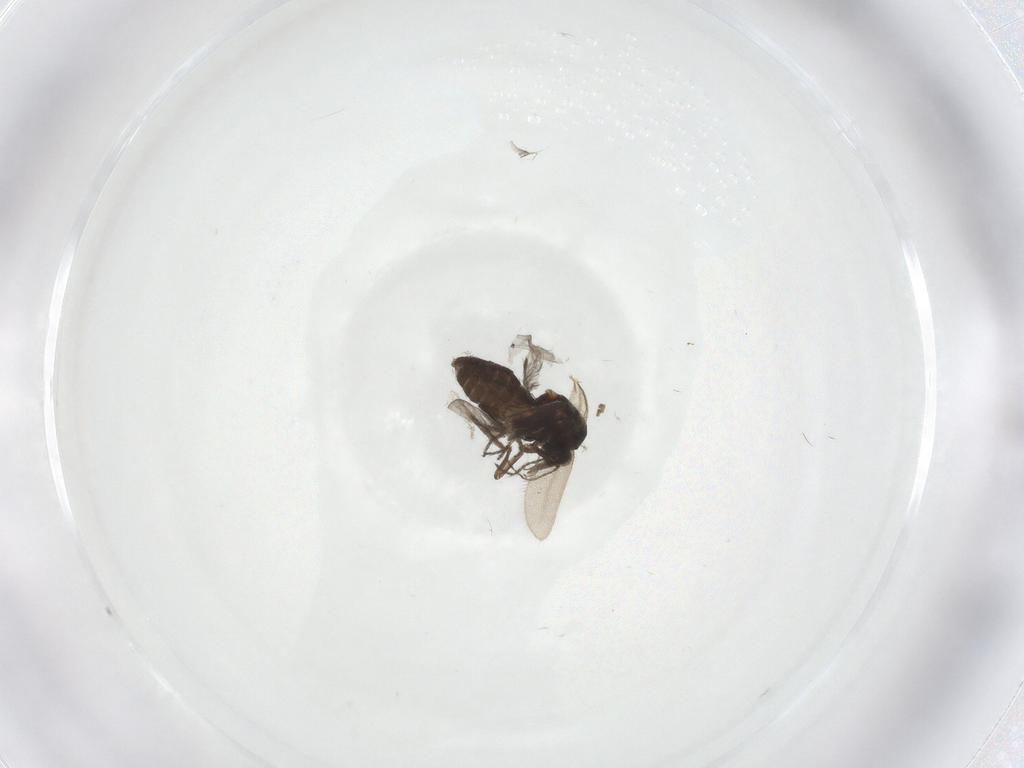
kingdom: Animalia
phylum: Arthropoda
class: Insecta
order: Diptera
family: Ceratopogonidae
